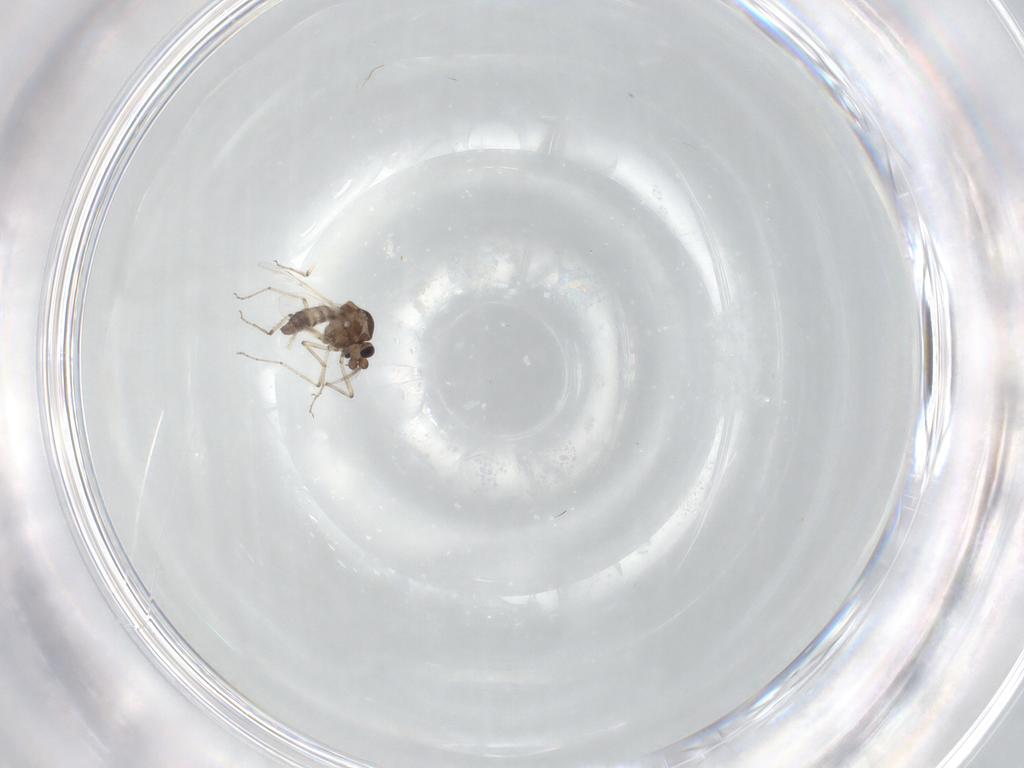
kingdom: Animalia
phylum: Arthropoda
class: Insecta
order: Diptera
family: Ceratopogonidae
